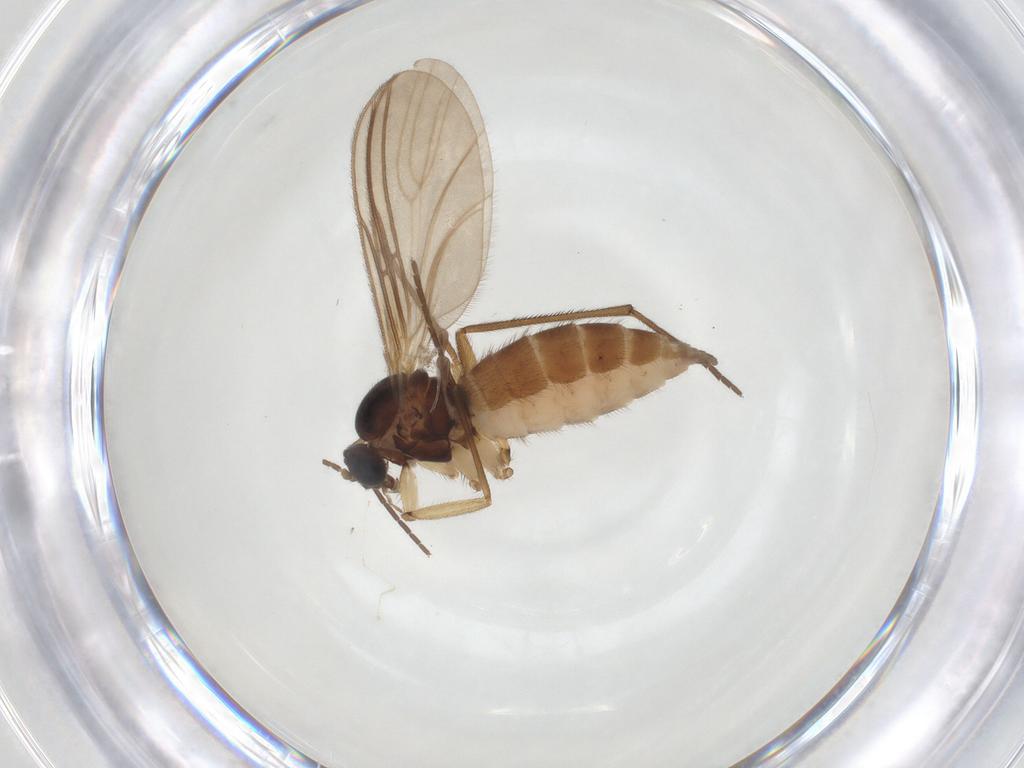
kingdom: Animalia
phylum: Arthropoda
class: Insecta
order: Diptera
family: Sciaridae
